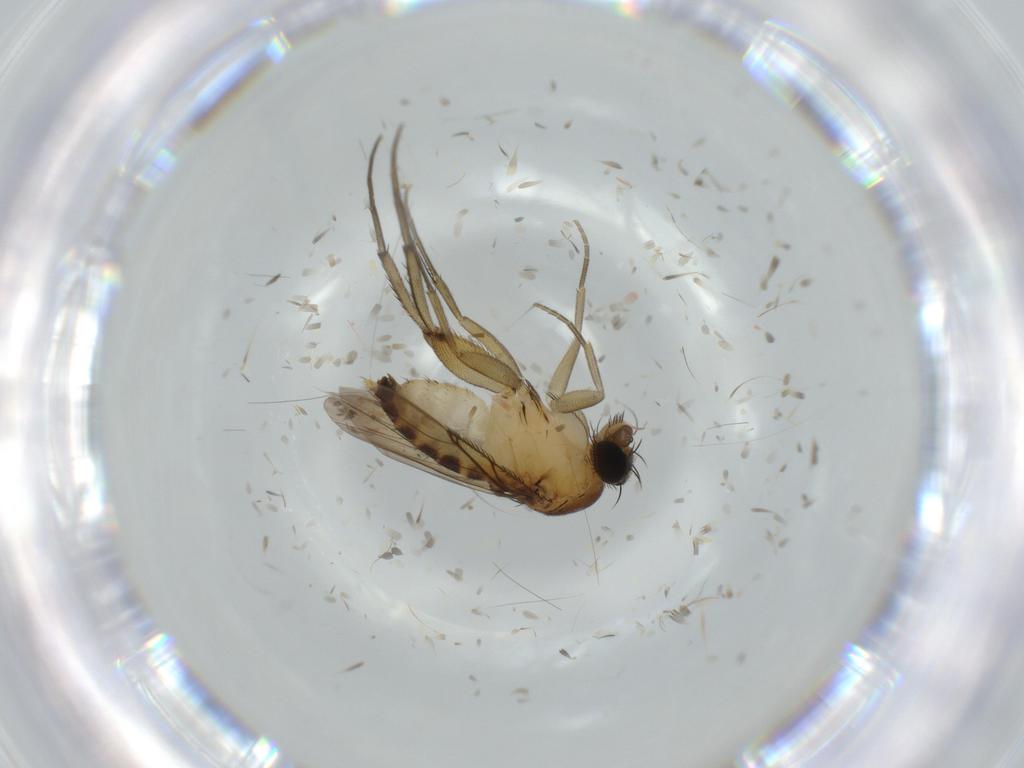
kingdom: Animalia
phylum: Arthropoda
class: Insecta
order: Diptera
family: Phoridae
